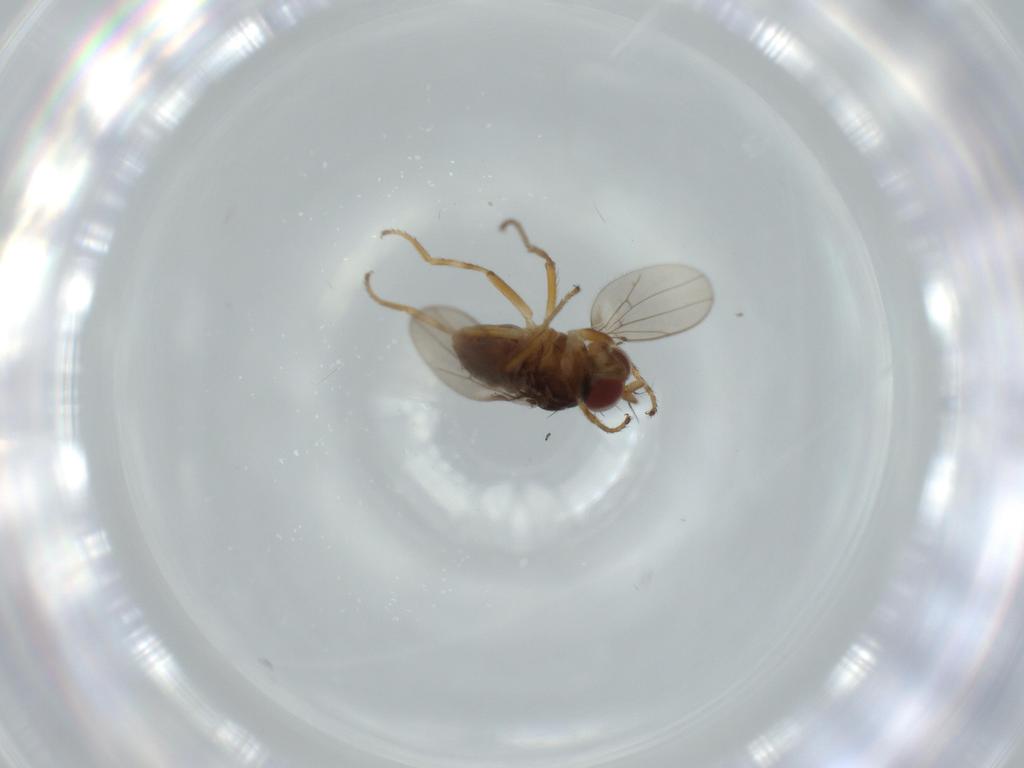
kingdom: Animalia
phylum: Arthropoda
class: Insecta
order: Diptera
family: Ephydridae
